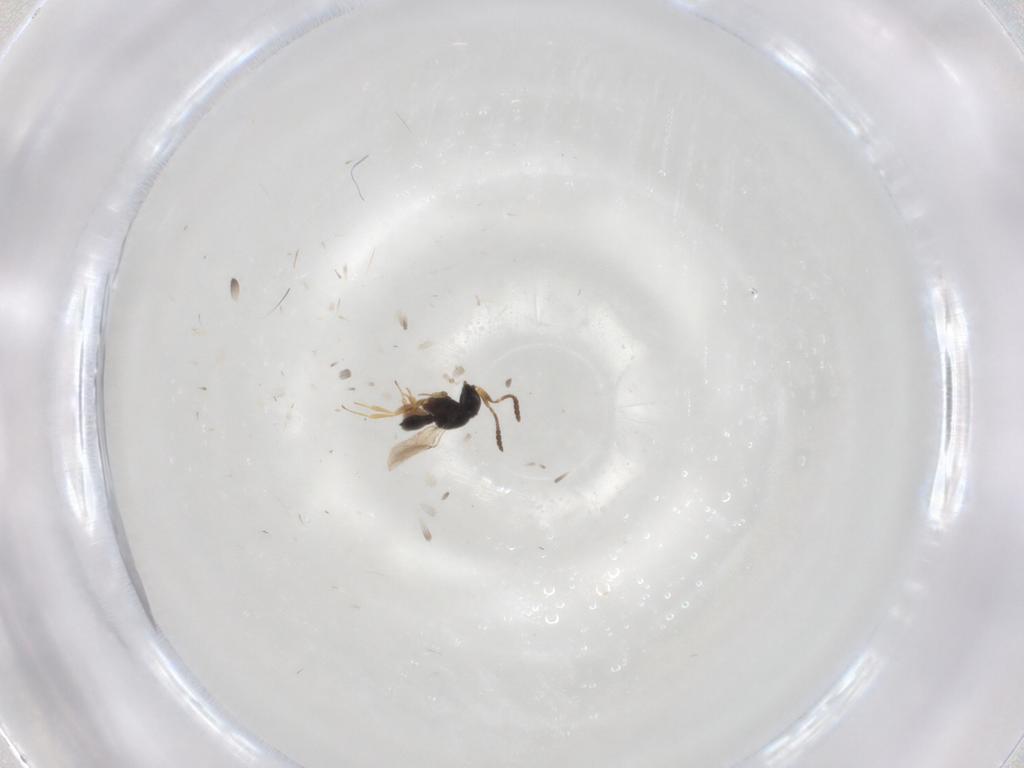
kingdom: Animalia
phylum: Arthropoda
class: Insecta
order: Hymenoptera
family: Scelionidae
